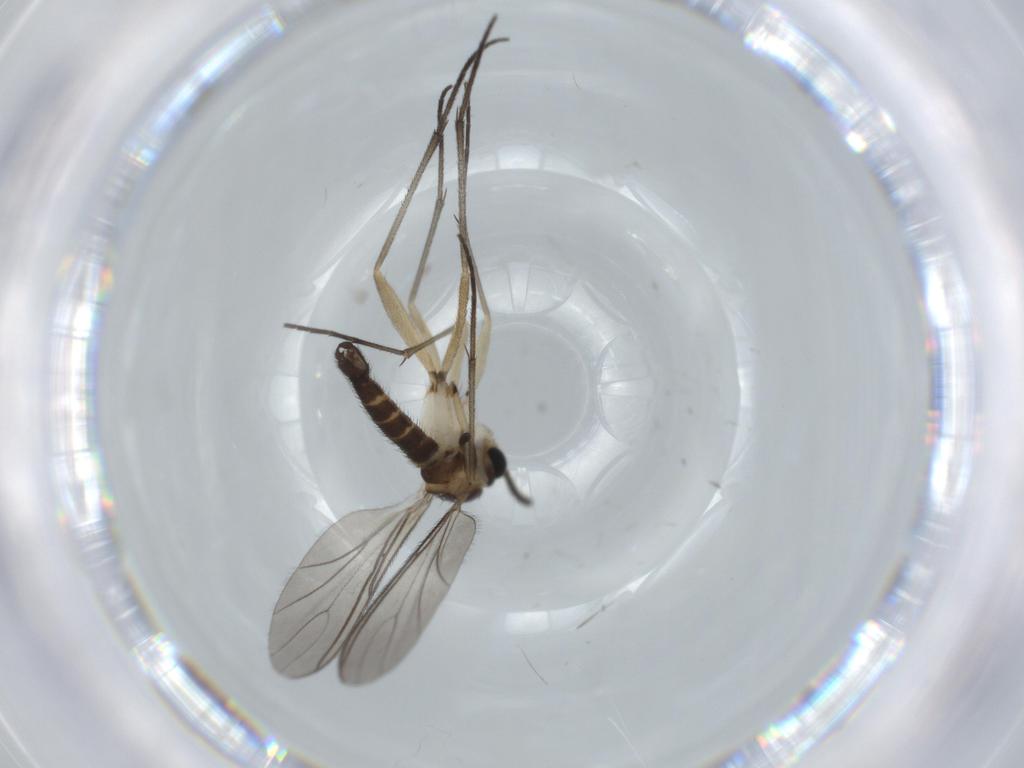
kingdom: Animalia
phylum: Arthropoda
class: Insecta
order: Diptera
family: Sciaridae
